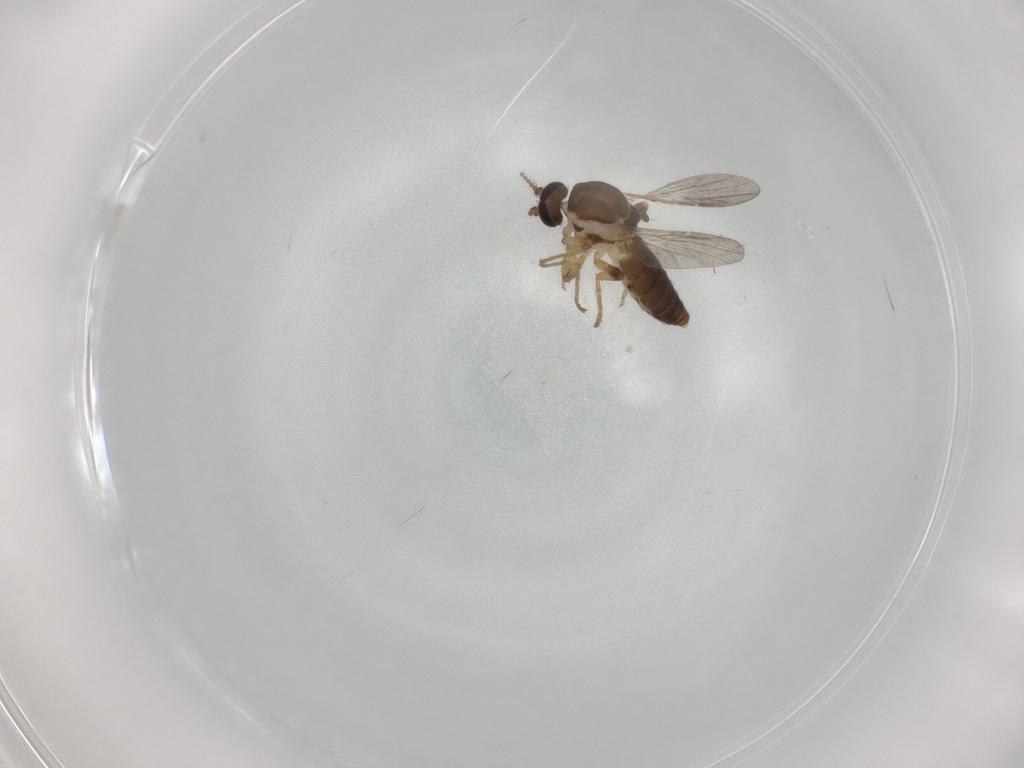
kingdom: Animalia
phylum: Arthropoda
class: Insecta
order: Diptera
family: Ceratopogonidae
